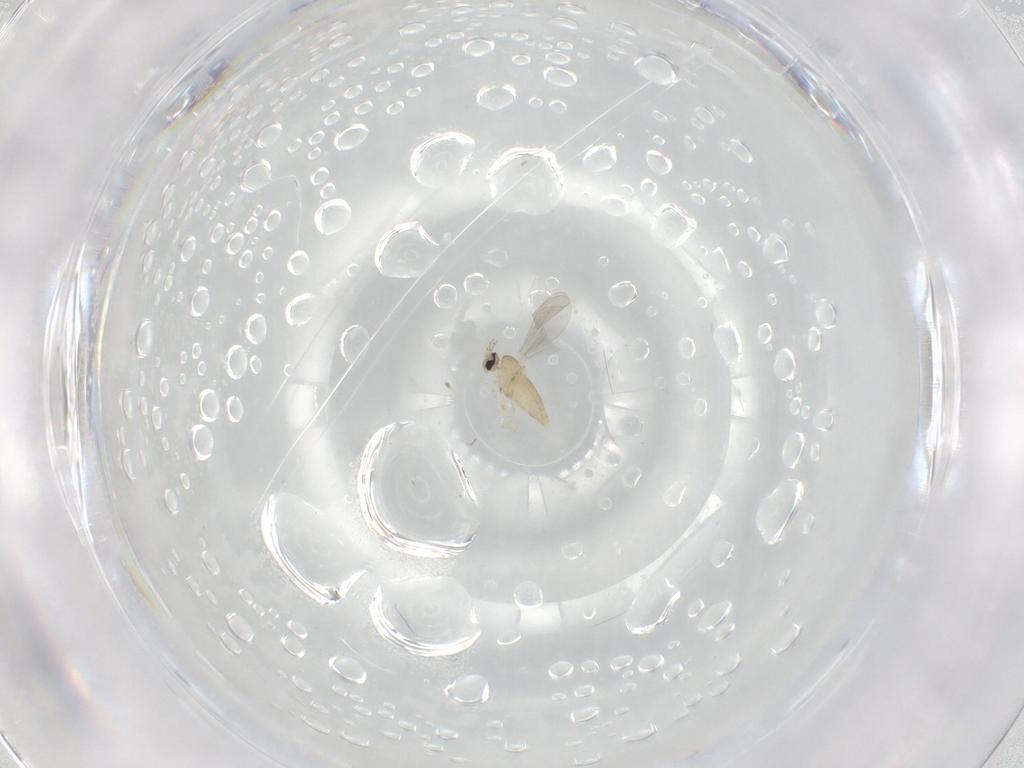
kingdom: Animalia
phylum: Arthropoda
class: Insecta
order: Diptera
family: Cecidomyiidae
